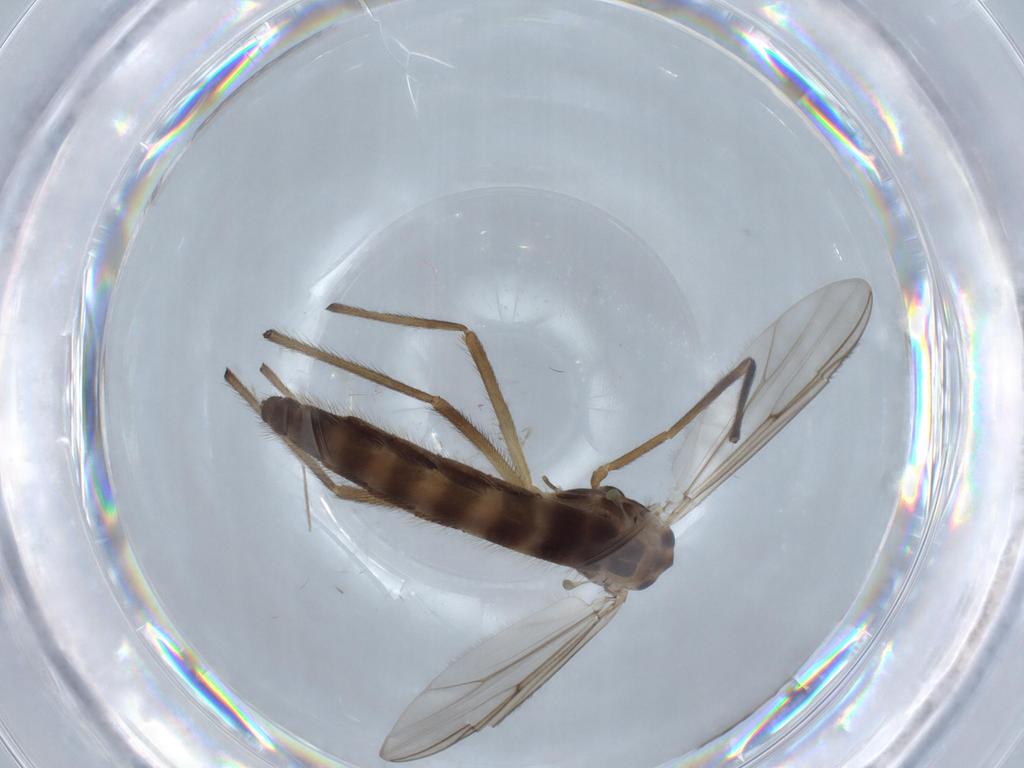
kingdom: Animalia
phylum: Arthropoda
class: Insecta
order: Diptera
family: Chironomidae
